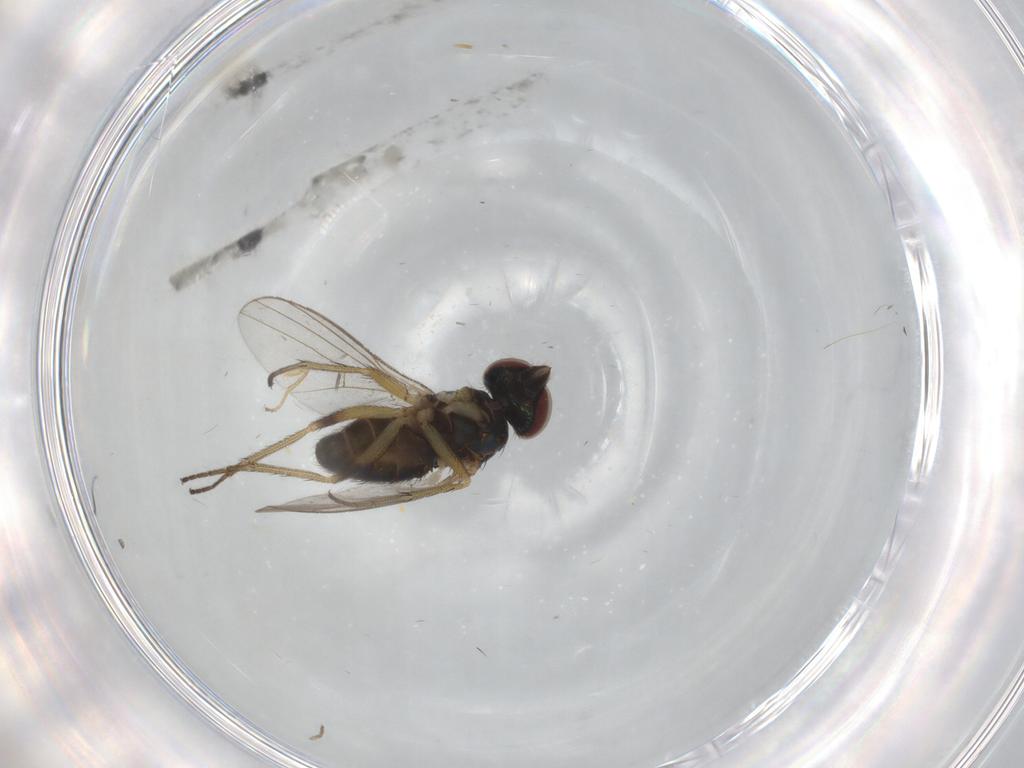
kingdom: Animalia
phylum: Arthropoda
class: Insecta
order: Diptera
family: Dolichopodidae
